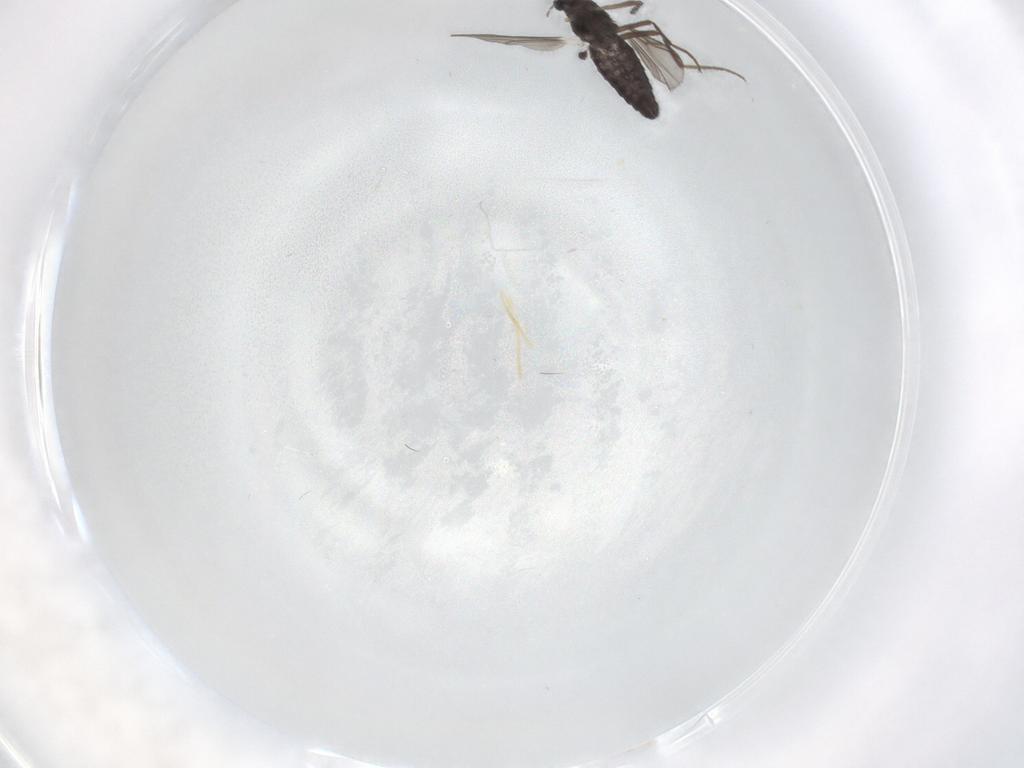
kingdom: Animalia
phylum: Arthropoda
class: Insecta
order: Diptera
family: Chironomidae
